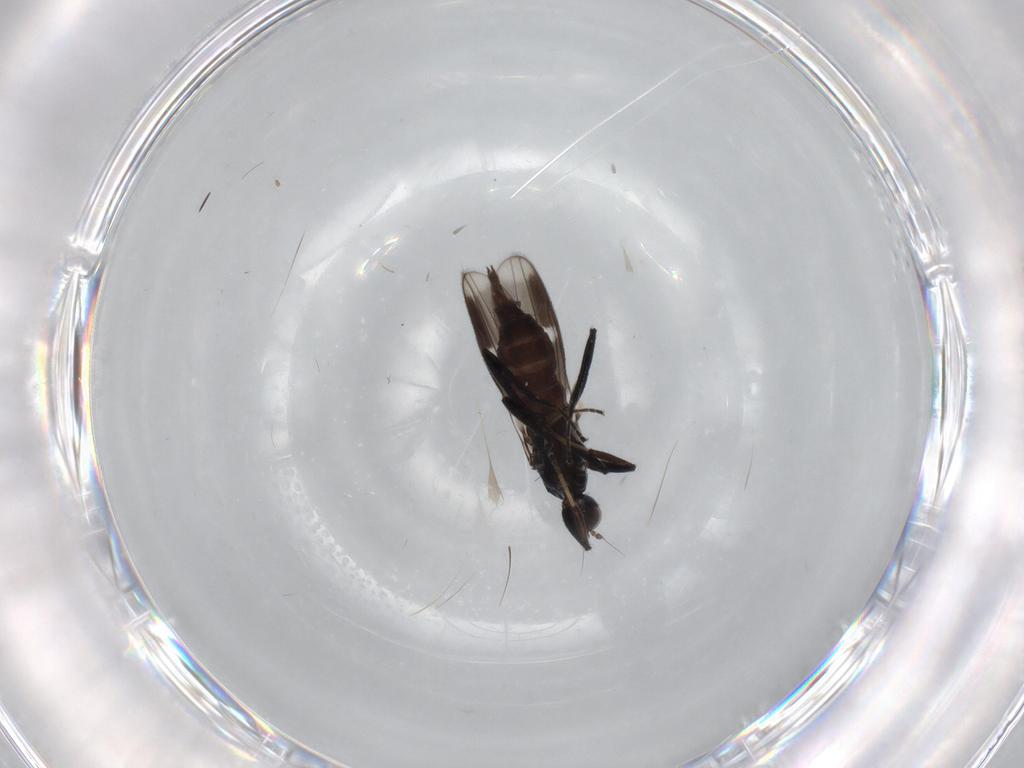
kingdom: Animalia
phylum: Arthropoda
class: Insecta
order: Diptera
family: Hybotidae
